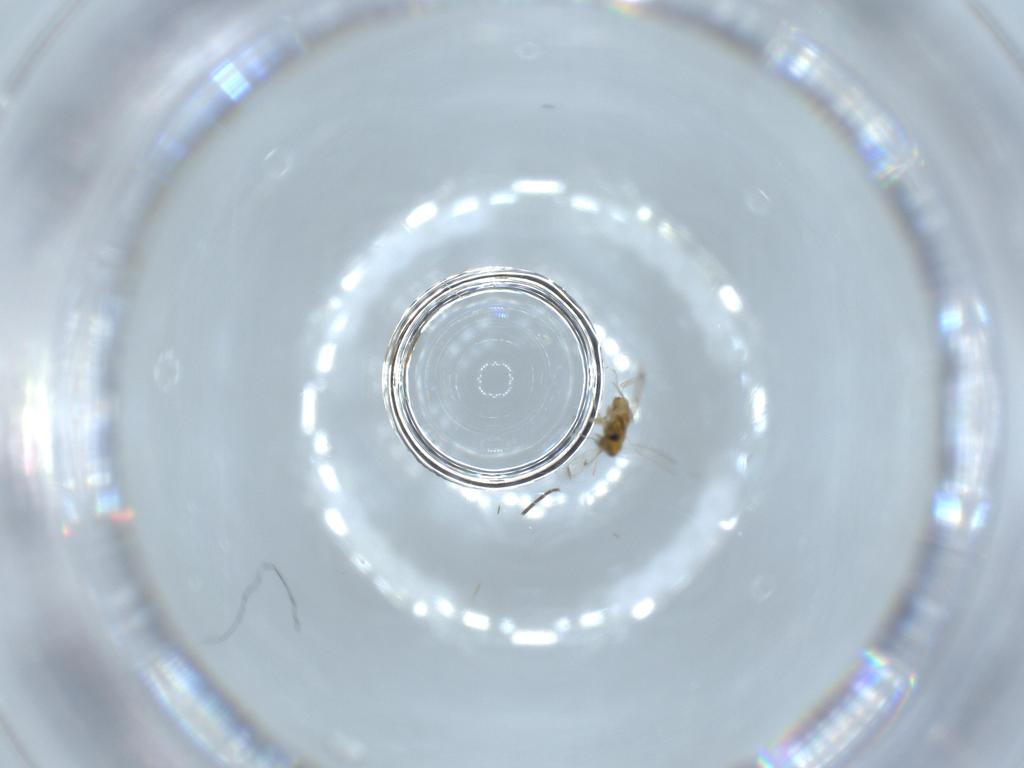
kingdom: Animalia
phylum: Arthropoda
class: Insecta
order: Hymenoptera
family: Trichogrammatidae
